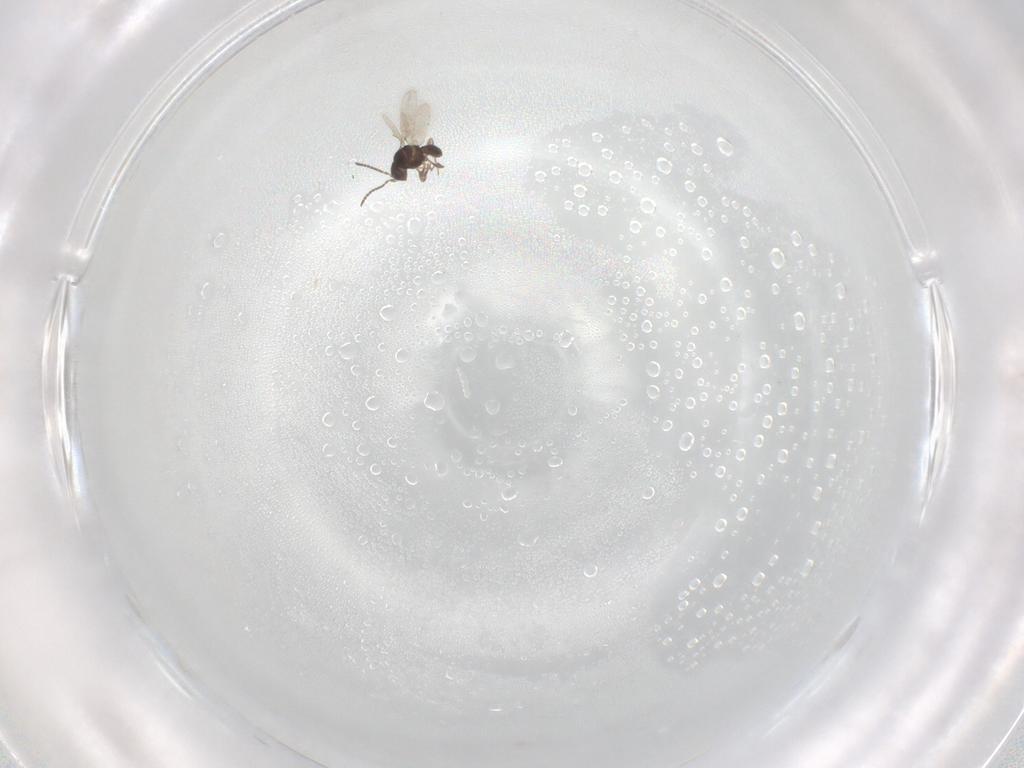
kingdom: Animalia
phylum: Arthropoda
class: Insecta
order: Hymenoptera
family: Scelionidae
